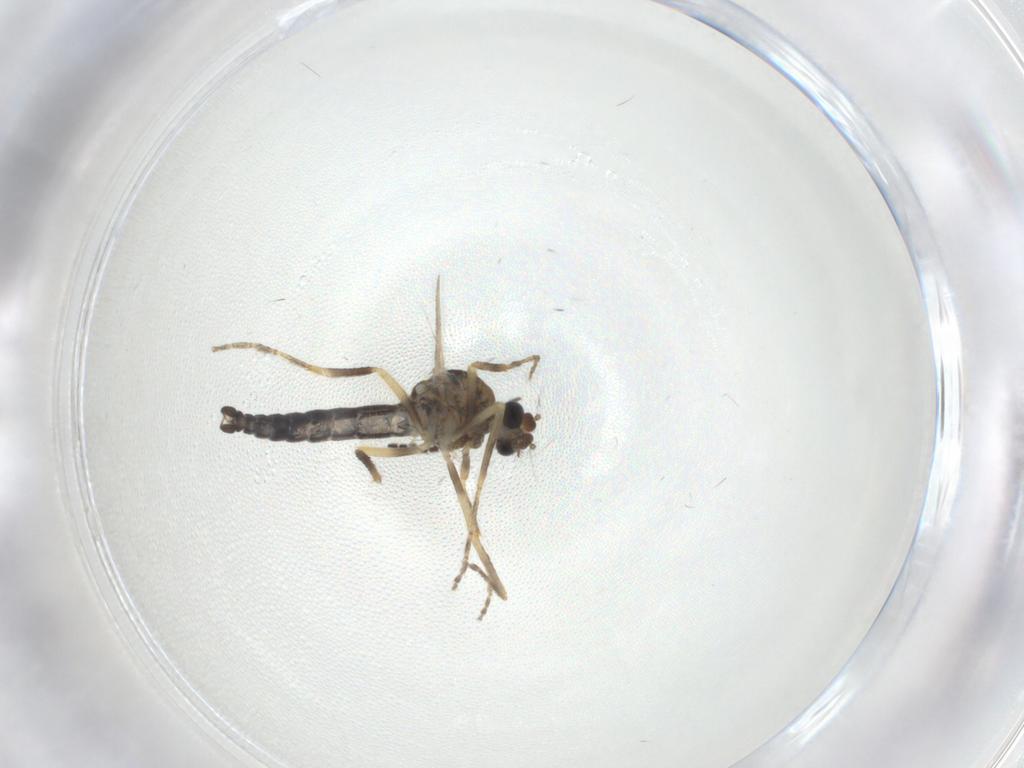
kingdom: Animalia
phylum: Arthropoda
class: Insecta
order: Diptera
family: Ceratopogonidae
